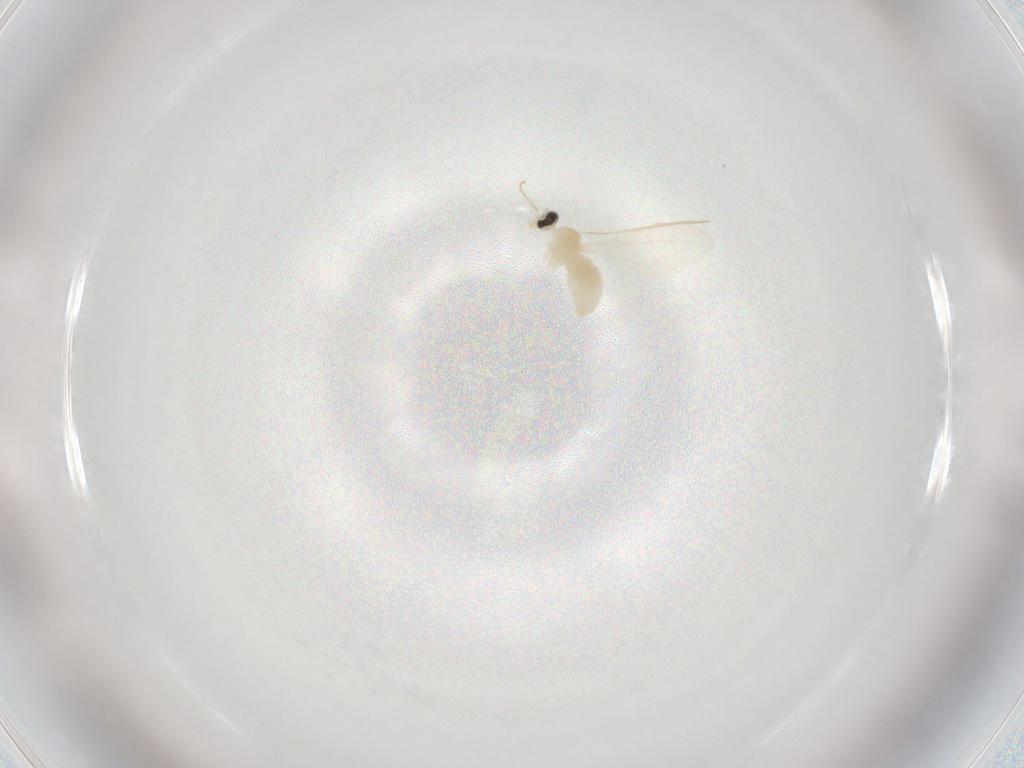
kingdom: Animalia
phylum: Arthropoda
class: Insecta
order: Diptera
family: Cecidomyiidae
